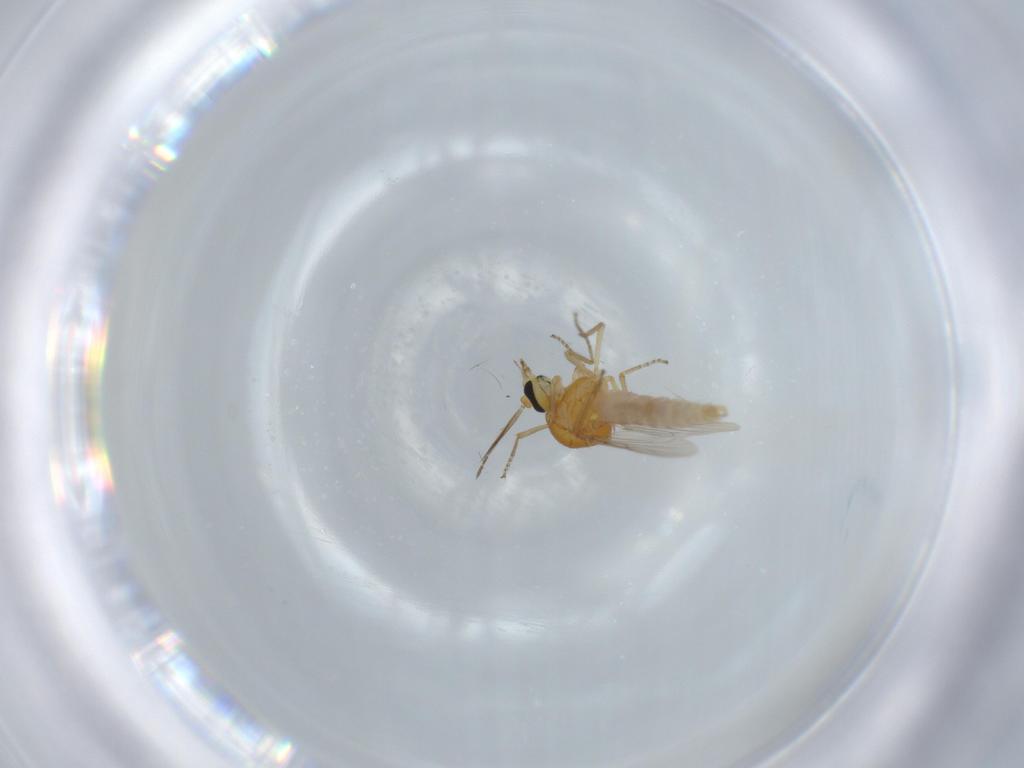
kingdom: Animalia
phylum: Arthropoda
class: Insecta
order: Diptera
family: Ceratopogonidae
